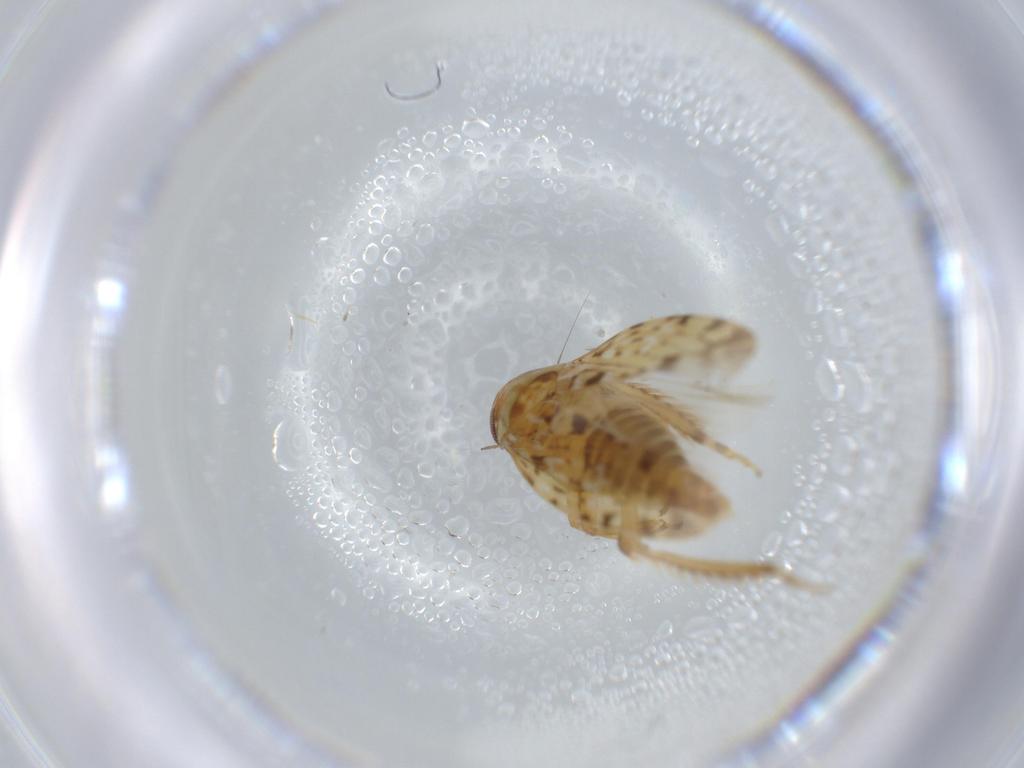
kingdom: Animalia
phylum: Arthropoda
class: Insecta
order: Hemiptera
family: Cicadellidae
